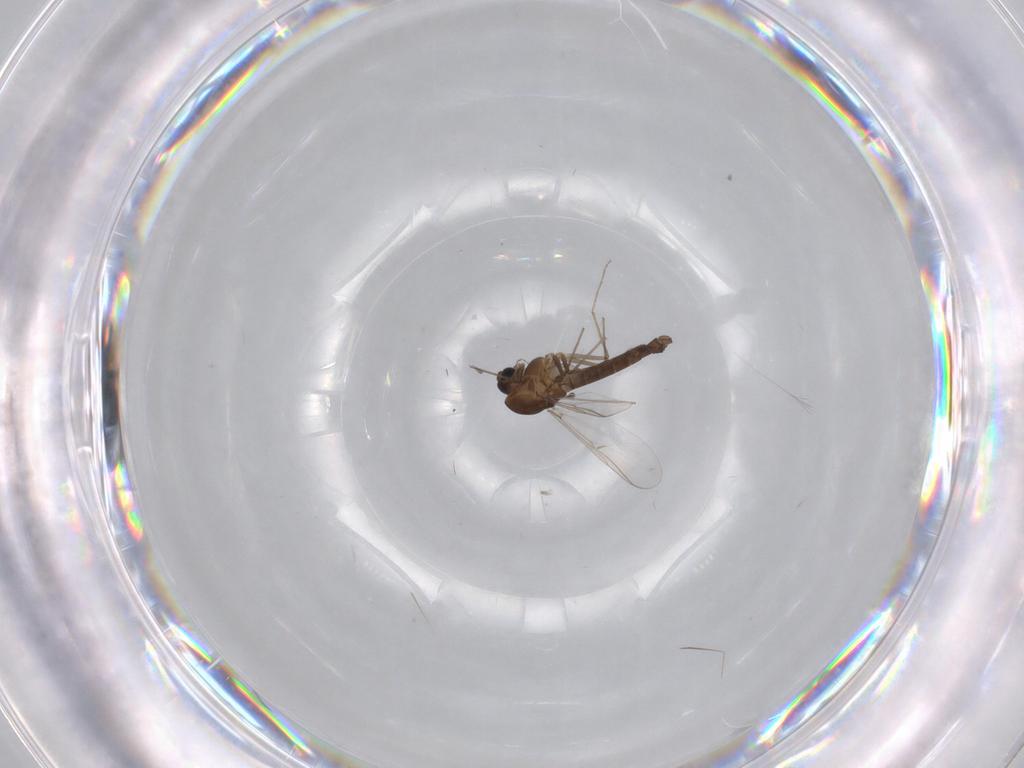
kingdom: Animalia
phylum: Arthropoda
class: Insecta
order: Diptera
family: Chironomidae
